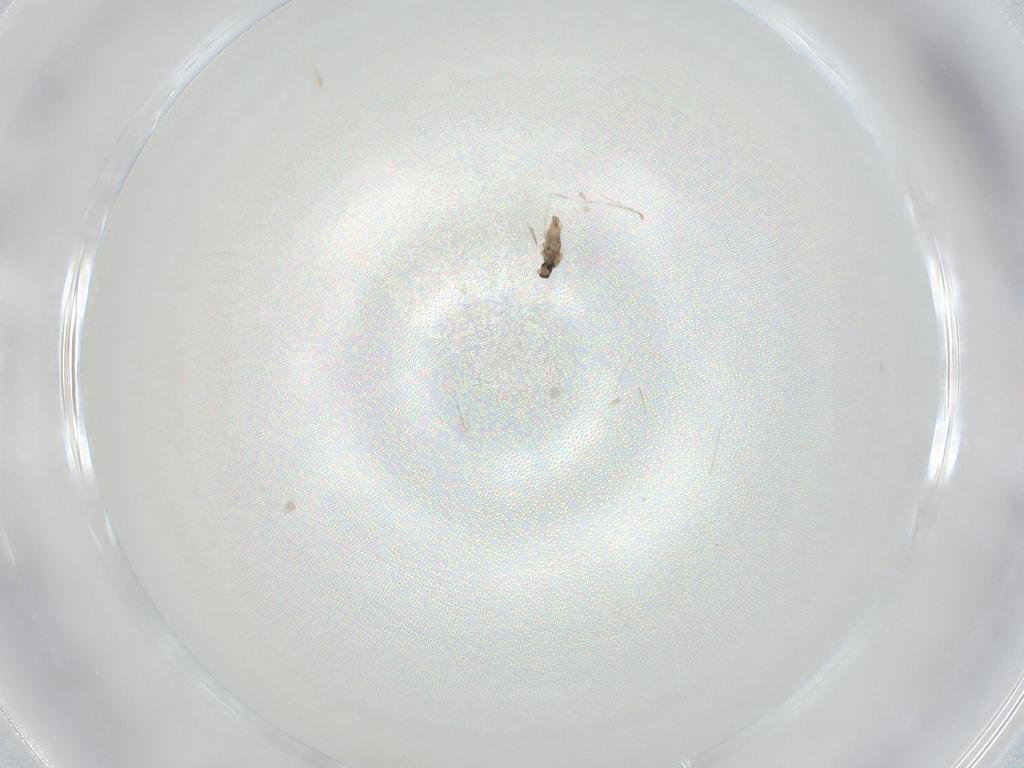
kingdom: Animalia
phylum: Arthropoda
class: Insecta
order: Diptera
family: Cecidomyiidae
